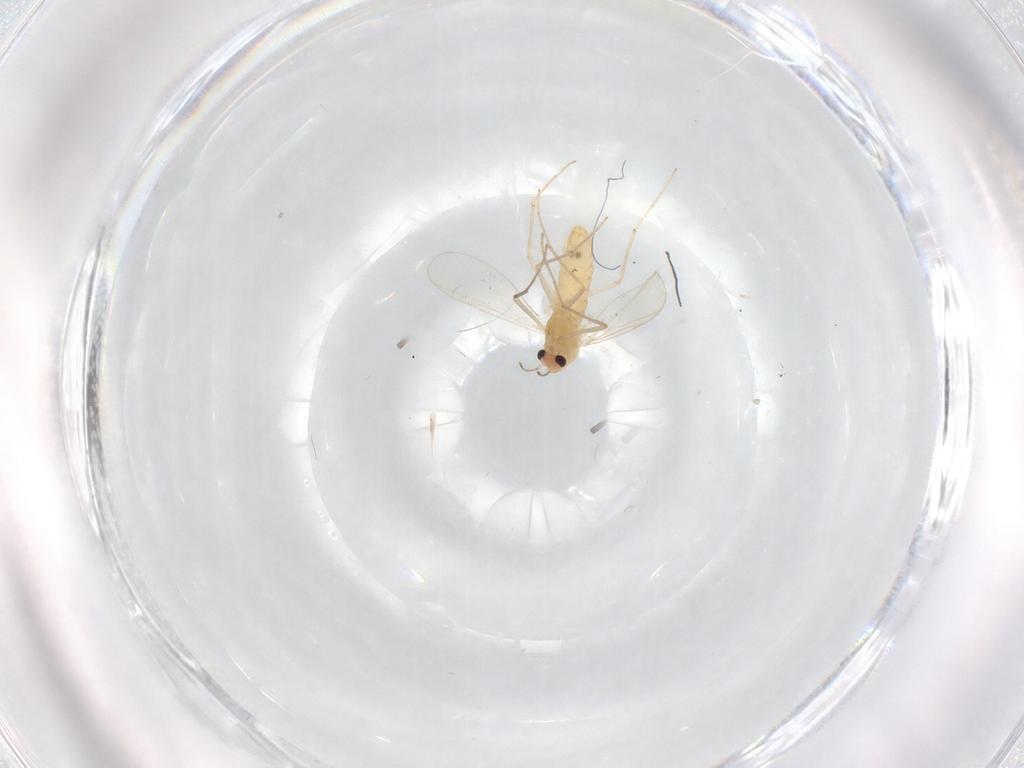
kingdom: Animalia
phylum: Arthropoda
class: Insecta
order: Diptera
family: Chironomidae
